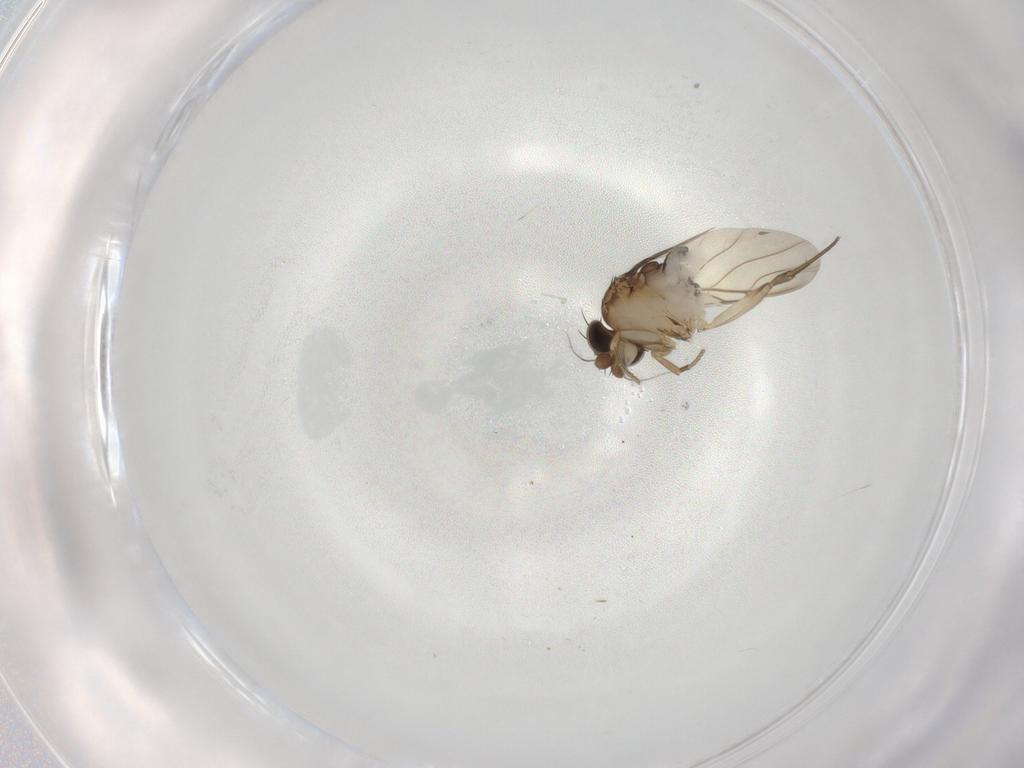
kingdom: Animalia
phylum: Arthropoda
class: Insecta
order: Diptera
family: Phoridae
